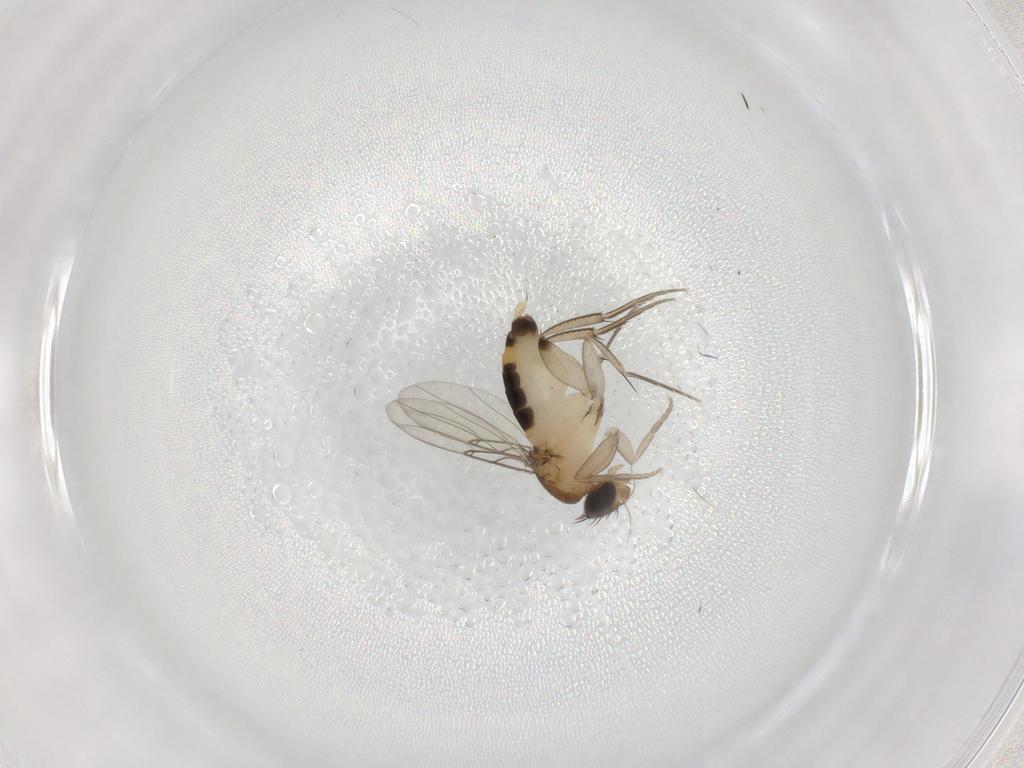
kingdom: Animalia
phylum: Arthropoda
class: Insecta
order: Diptera
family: Phoridae
